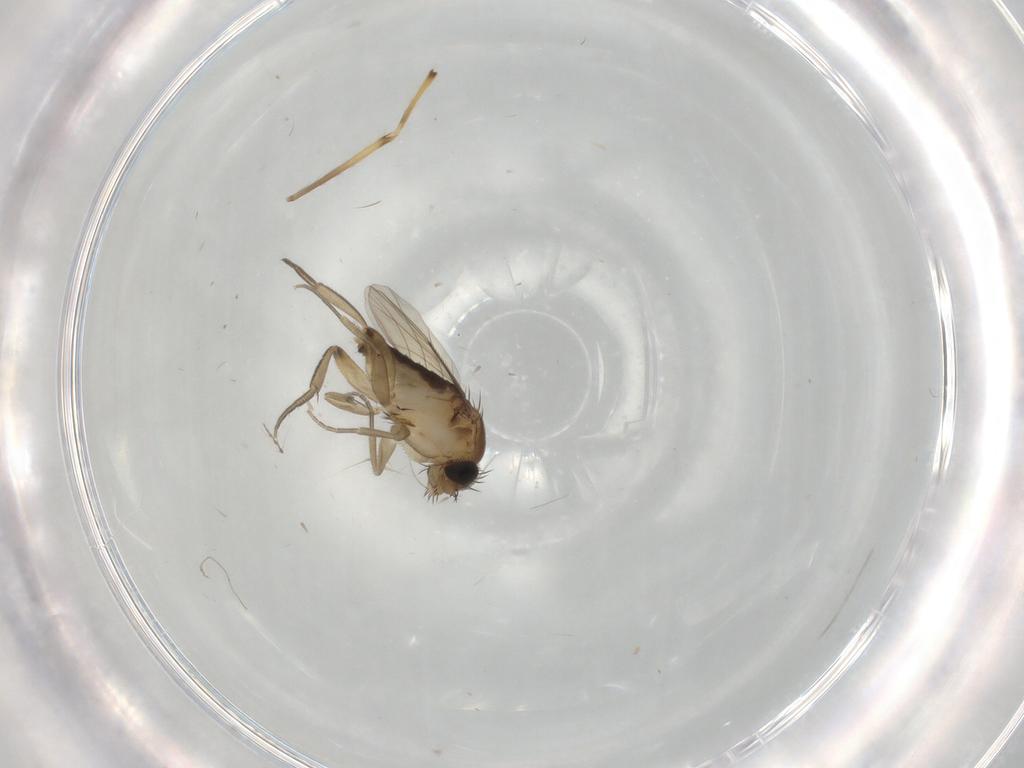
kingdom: Animalia
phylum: Arthropoda
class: Insecta
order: Diptera
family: Phoridae
